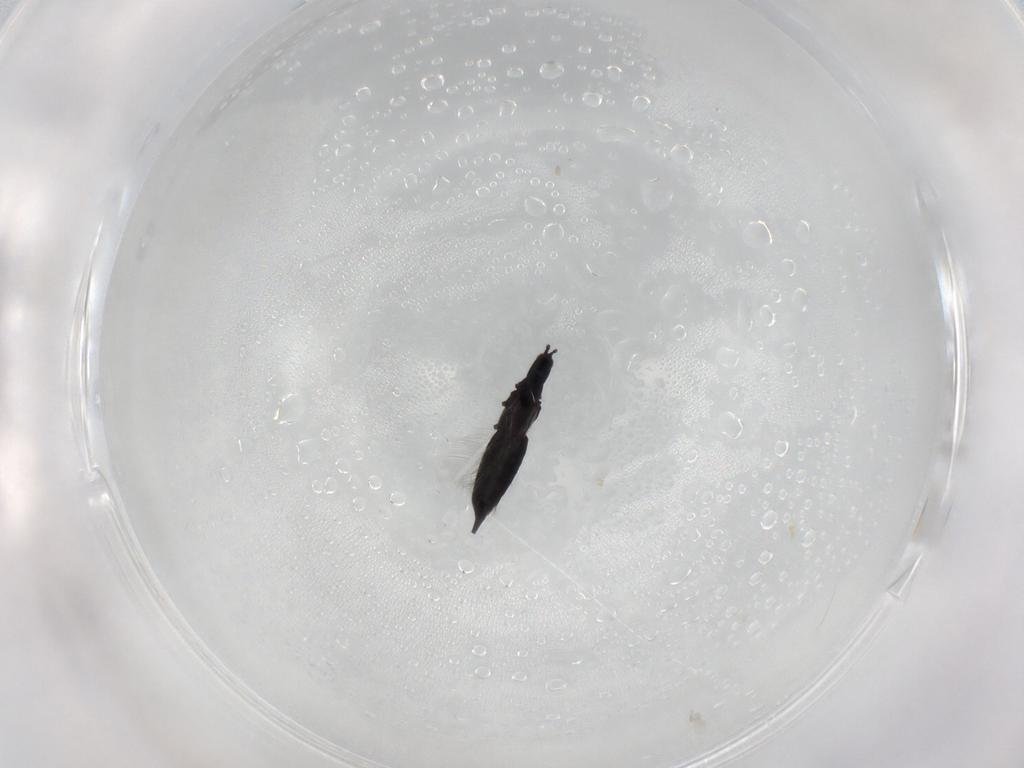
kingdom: Animalia
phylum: Arthropoda
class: Insecta
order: Thysanoptera
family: Phlaeothripidae
